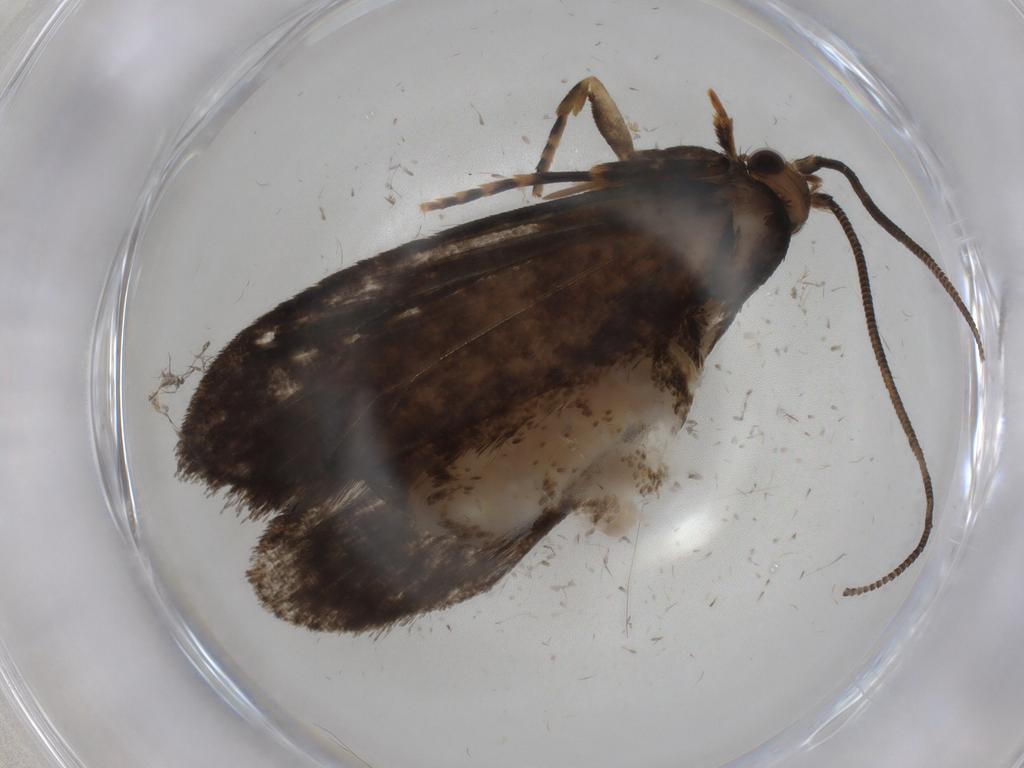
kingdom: Animalia
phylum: Arthropoda
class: Insecta
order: Lepidoptera
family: Tineidae
